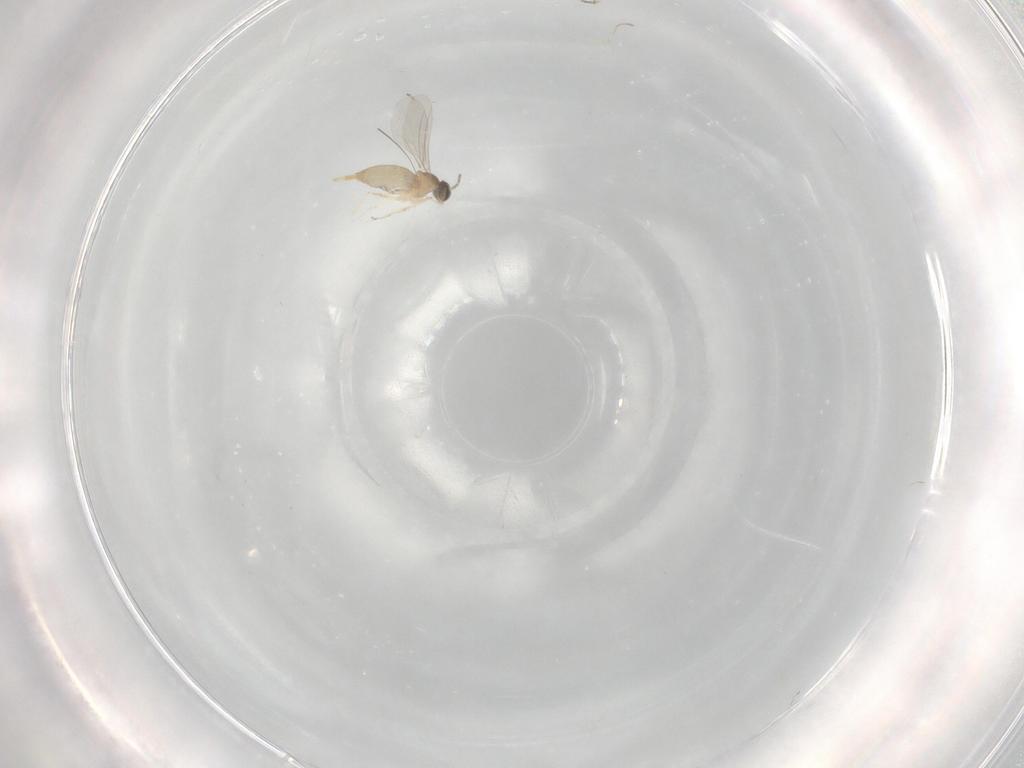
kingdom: Animalia
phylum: Arthropoda
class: Insecta
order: Diptera
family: Cecidomyiidae
